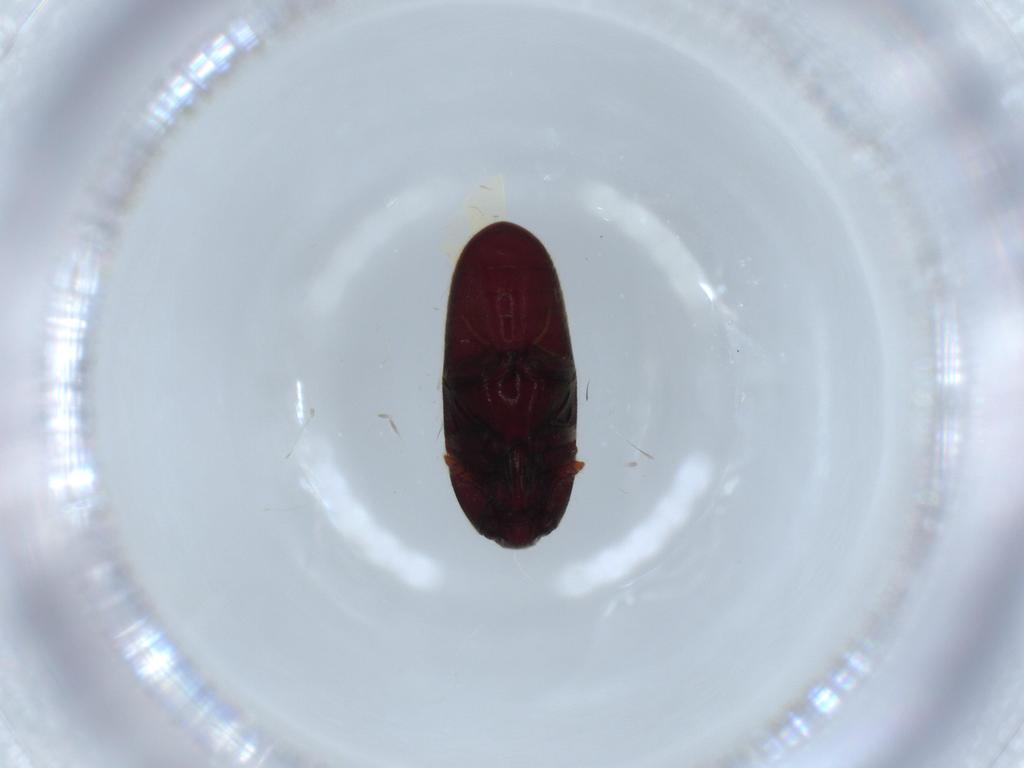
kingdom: Animalia
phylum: Arthropoda
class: Insecta
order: Coleoptera
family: Throscidae
